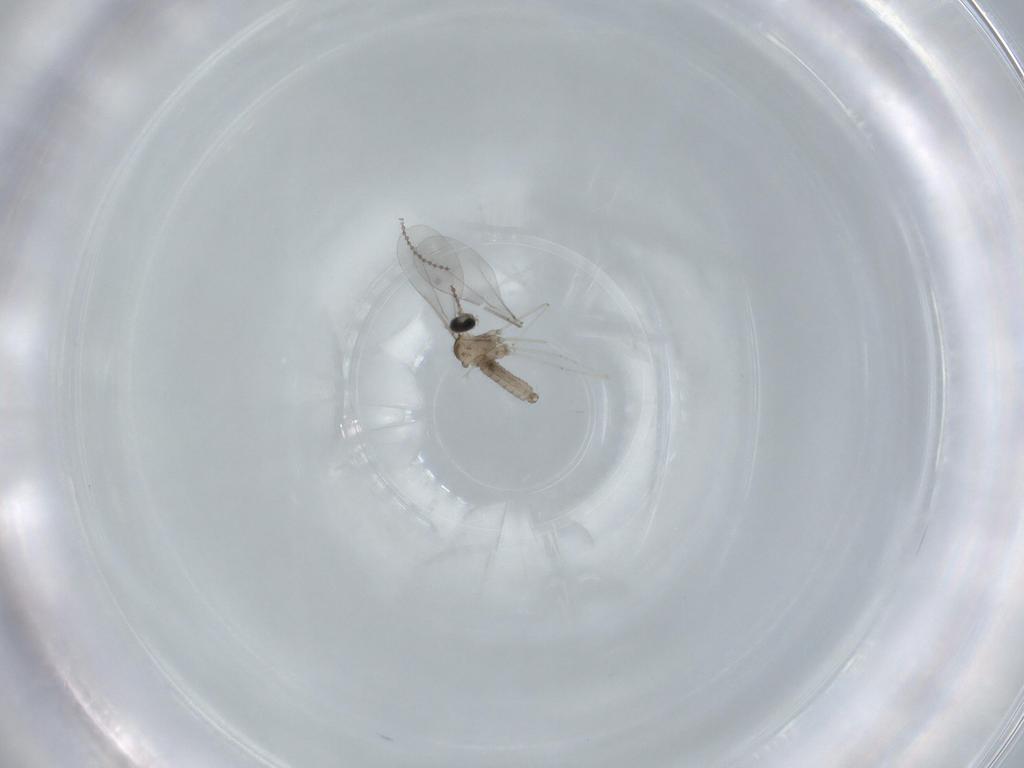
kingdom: Animalia
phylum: Arthropoda
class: Insecta
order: Diptera
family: Cecidomyiidae
